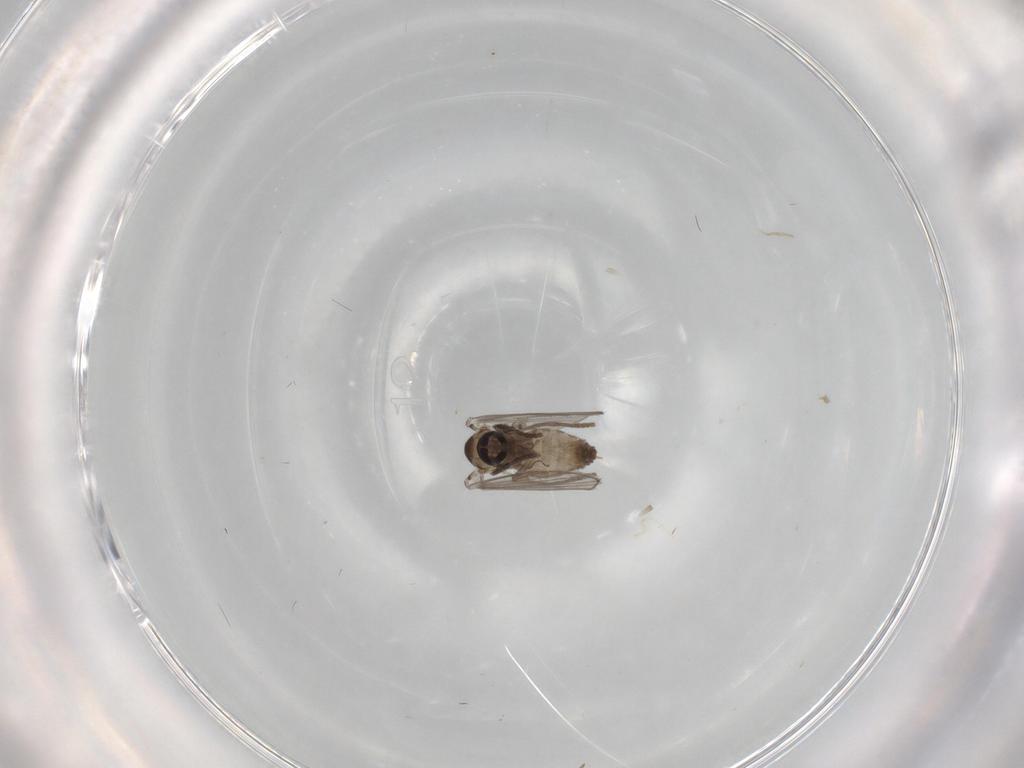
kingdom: Animalia
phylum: Arthropoda
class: Insecta
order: Diptera
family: Psychodidae
